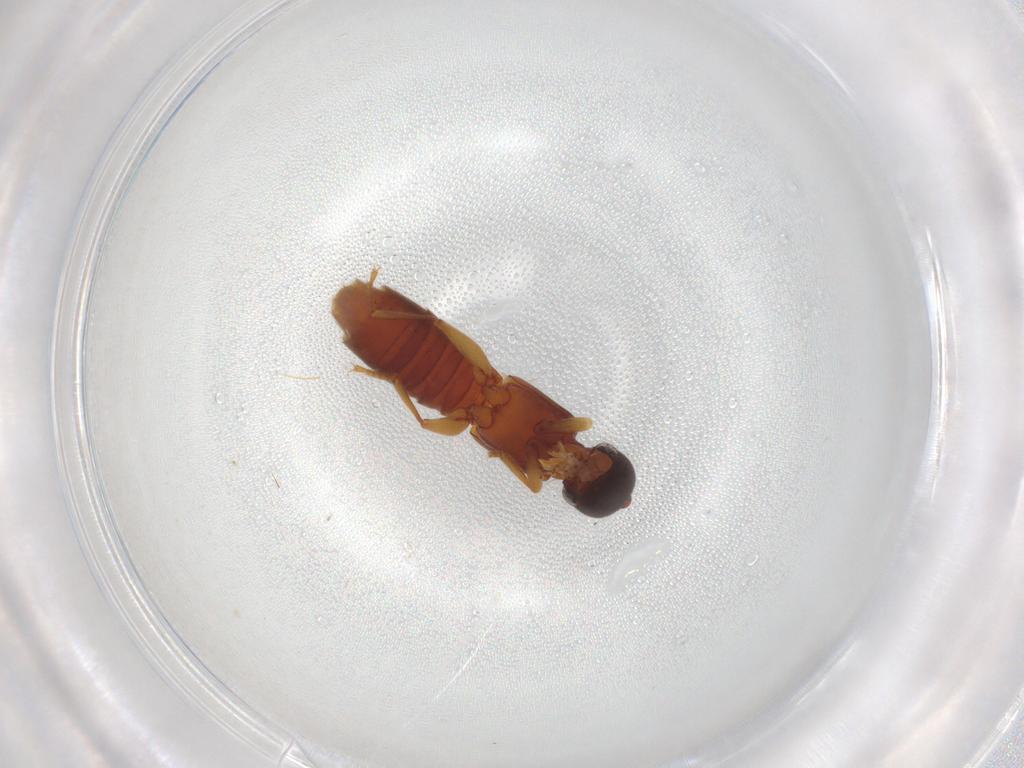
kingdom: Animalia
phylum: Arthropoda
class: Insecta
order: Coleoptera
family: Staphylinidae
